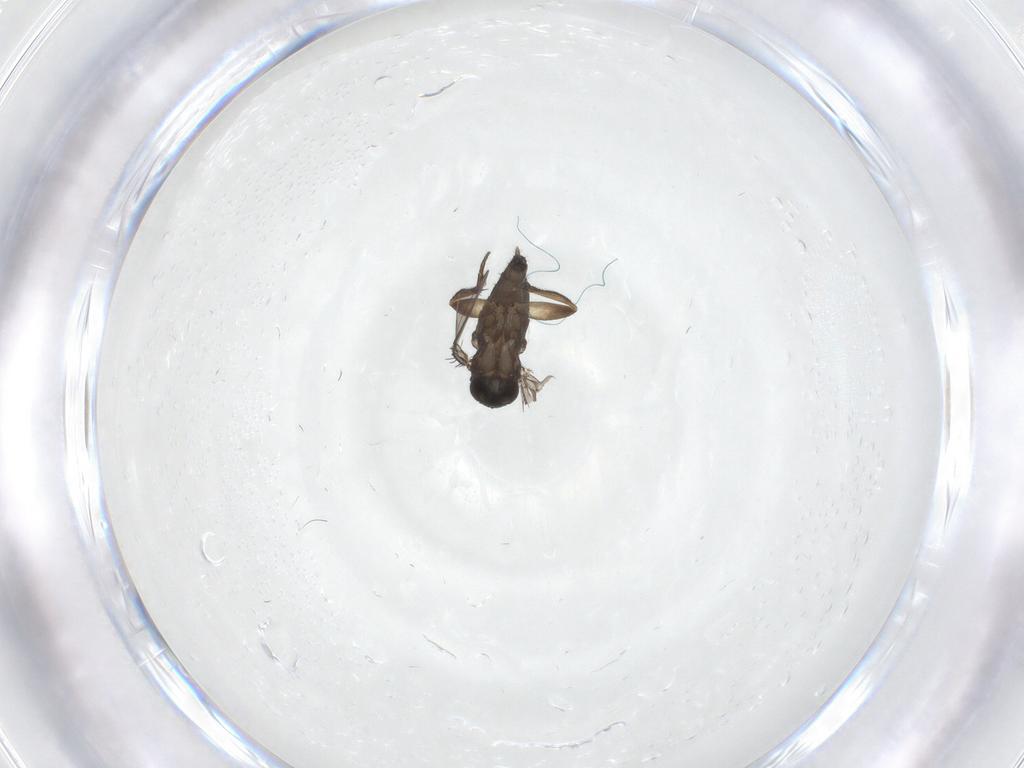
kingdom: Animalia
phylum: Arthropoda
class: Insecta
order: Diptera
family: Phoridae
